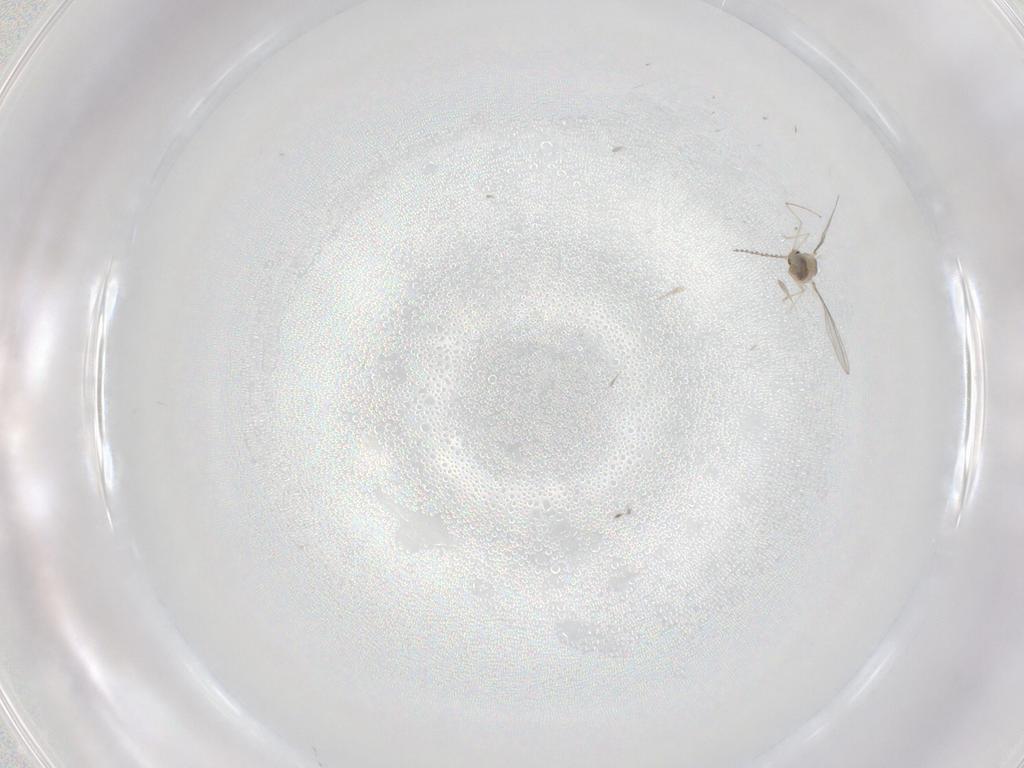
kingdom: Animalia
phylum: Arthropoda
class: Insecta
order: Diptera
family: Cecidomyiidae
